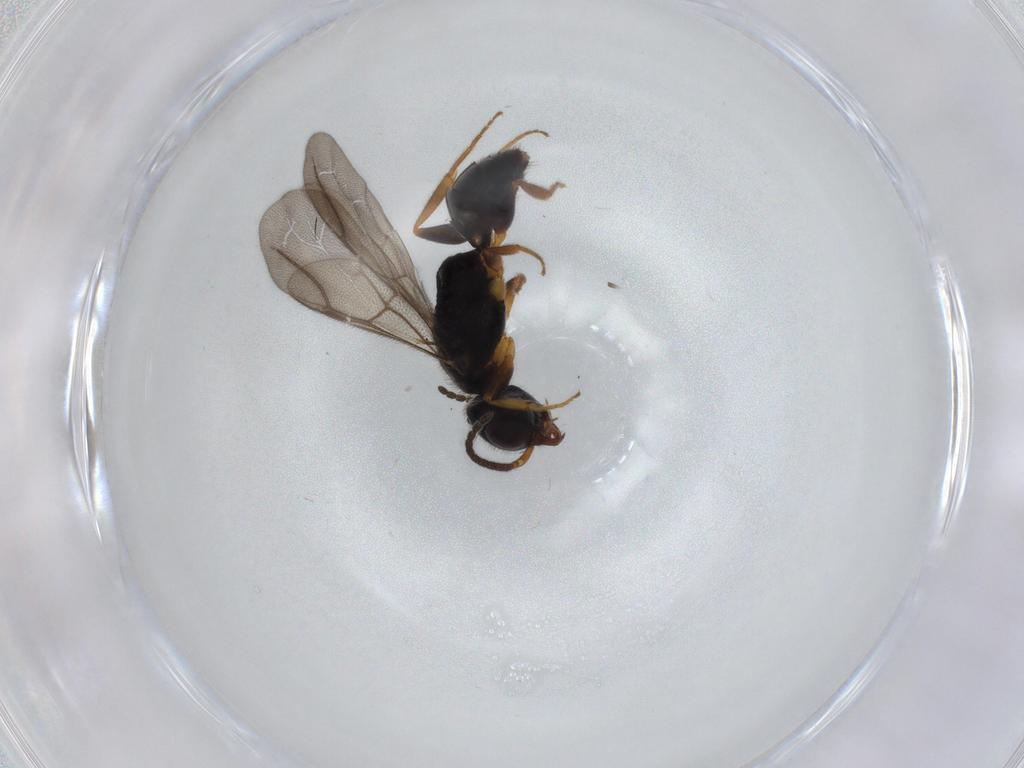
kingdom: Animalia
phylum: Arthropoda
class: Insecta
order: Hymenoptera
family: Bethylidae
